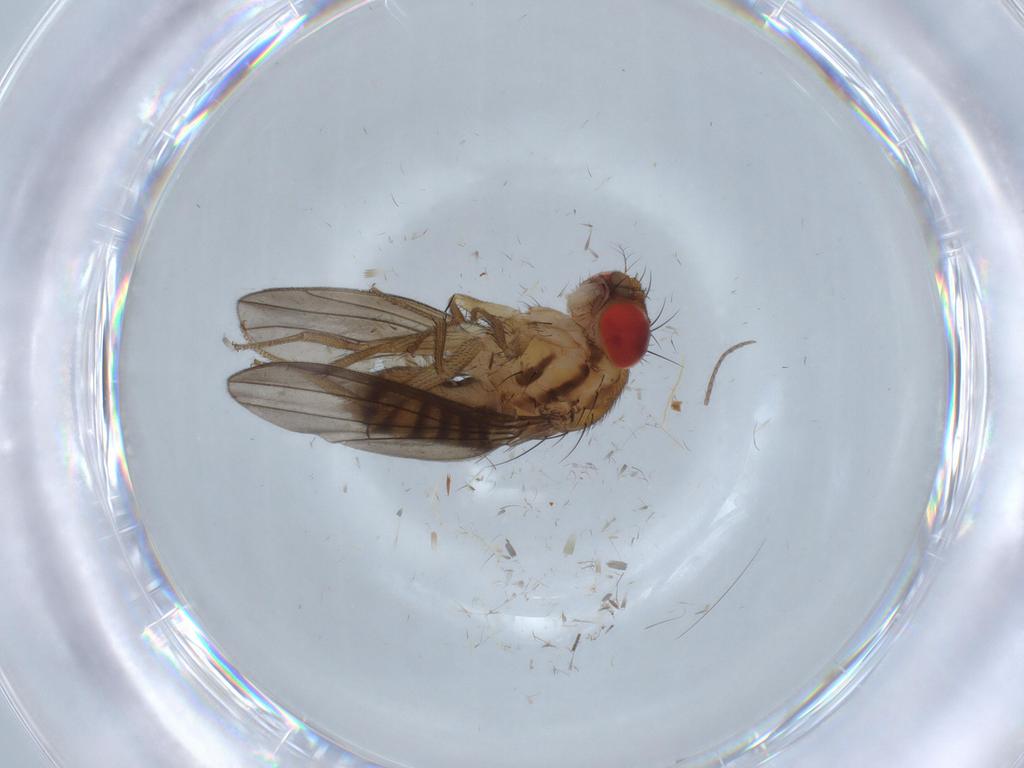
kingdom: Animalia
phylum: Arthropoda
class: Insecta
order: Diptera
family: Drosophilidae
